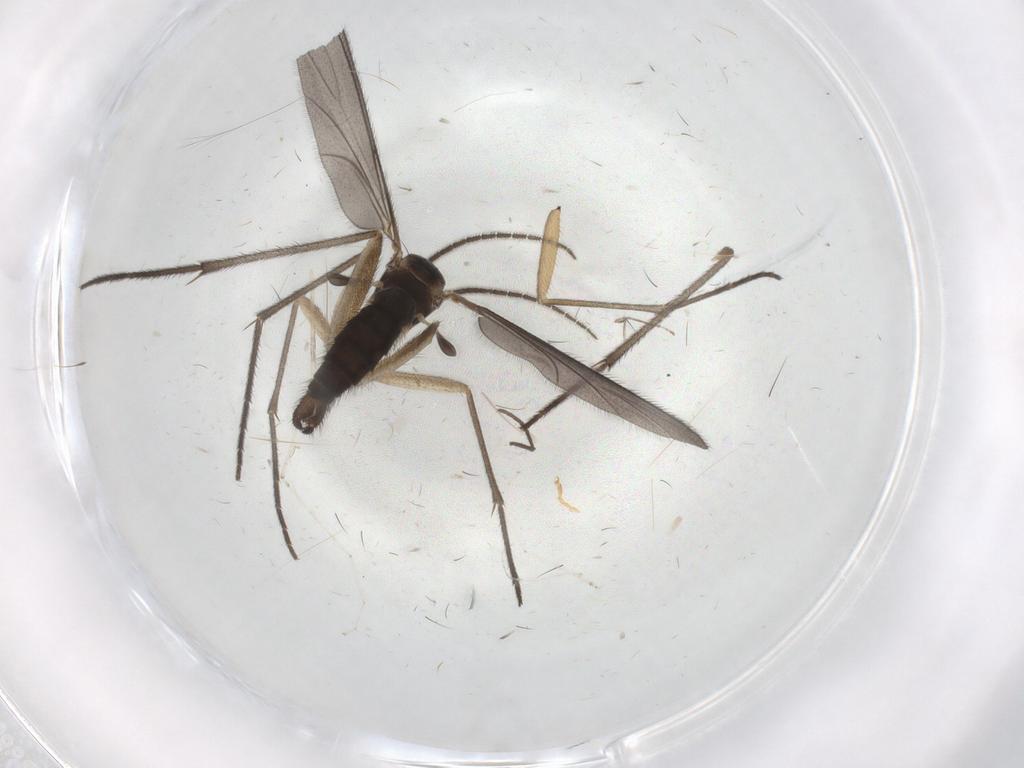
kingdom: Animalia
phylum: Arthropoda
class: Insecta
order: Diptera
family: Sciaridae
